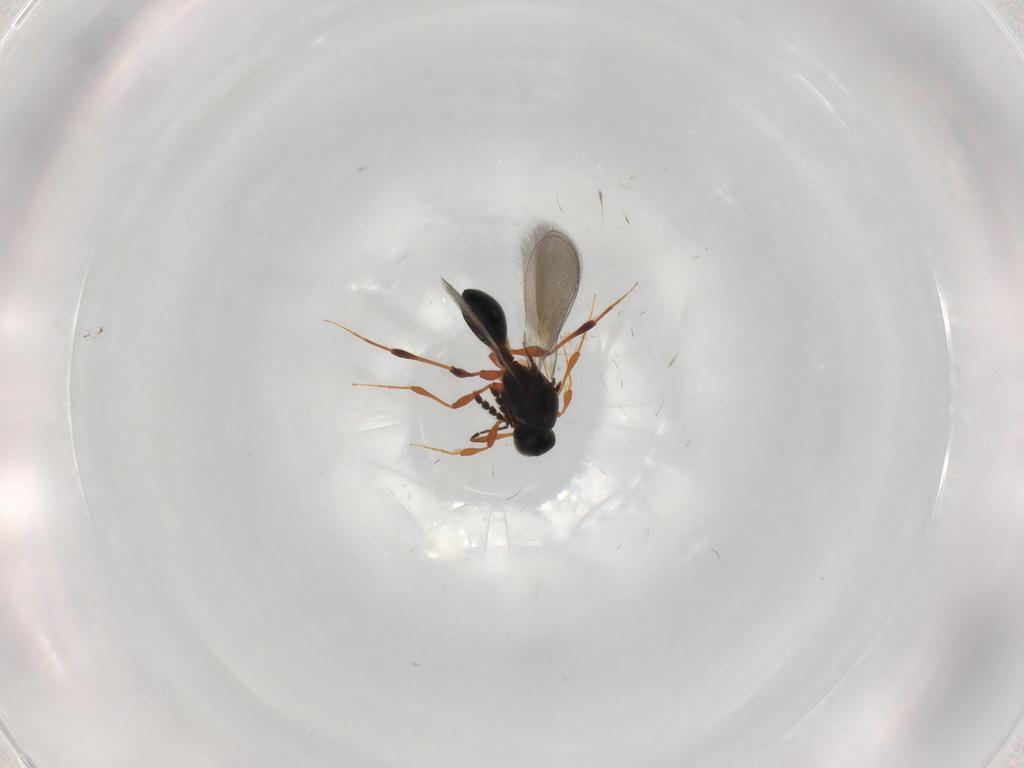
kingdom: Animalia
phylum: Arthropoda
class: Insecta
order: Hymenoptera
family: Platygastridae
